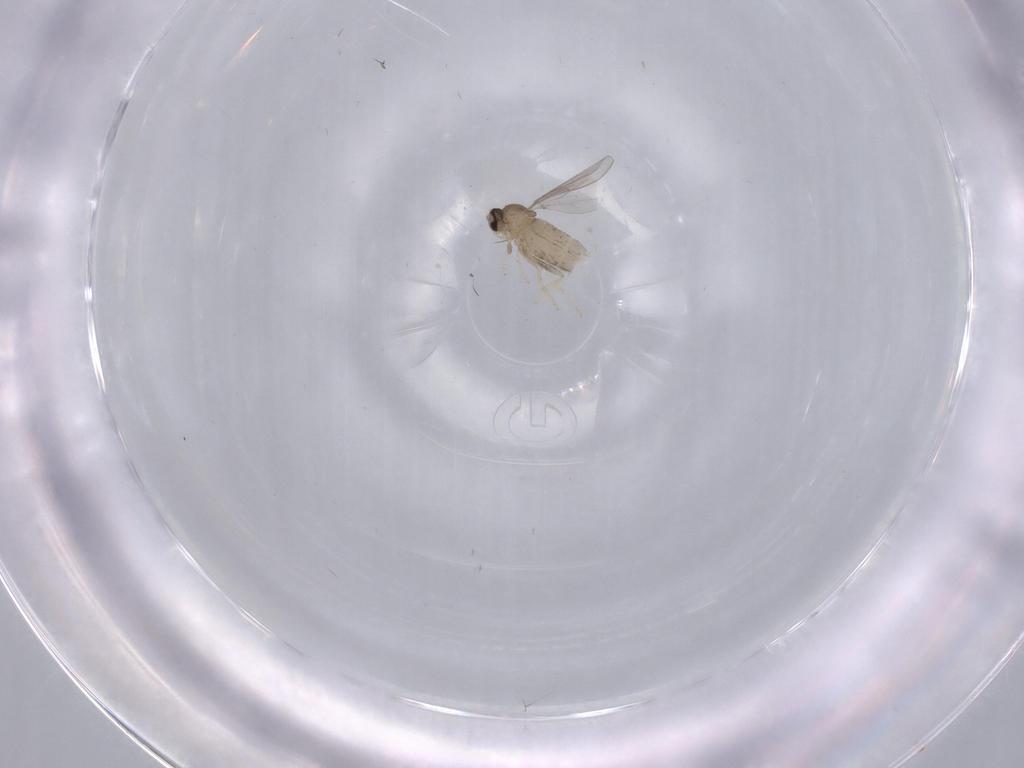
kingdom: Animalia
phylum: Arthropoda
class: Insecta
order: Diptera
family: Cecidomyiidae
